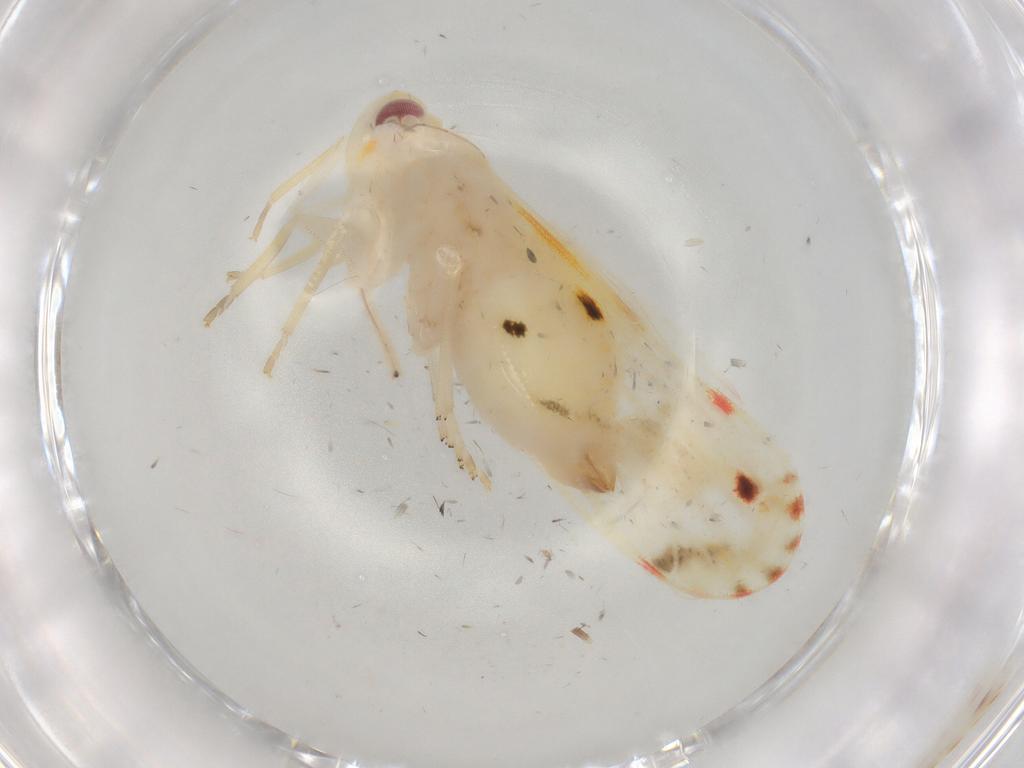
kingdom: Animalia
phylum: Arthropoda
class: Insecta
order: Hemiptera
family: Derbidae
